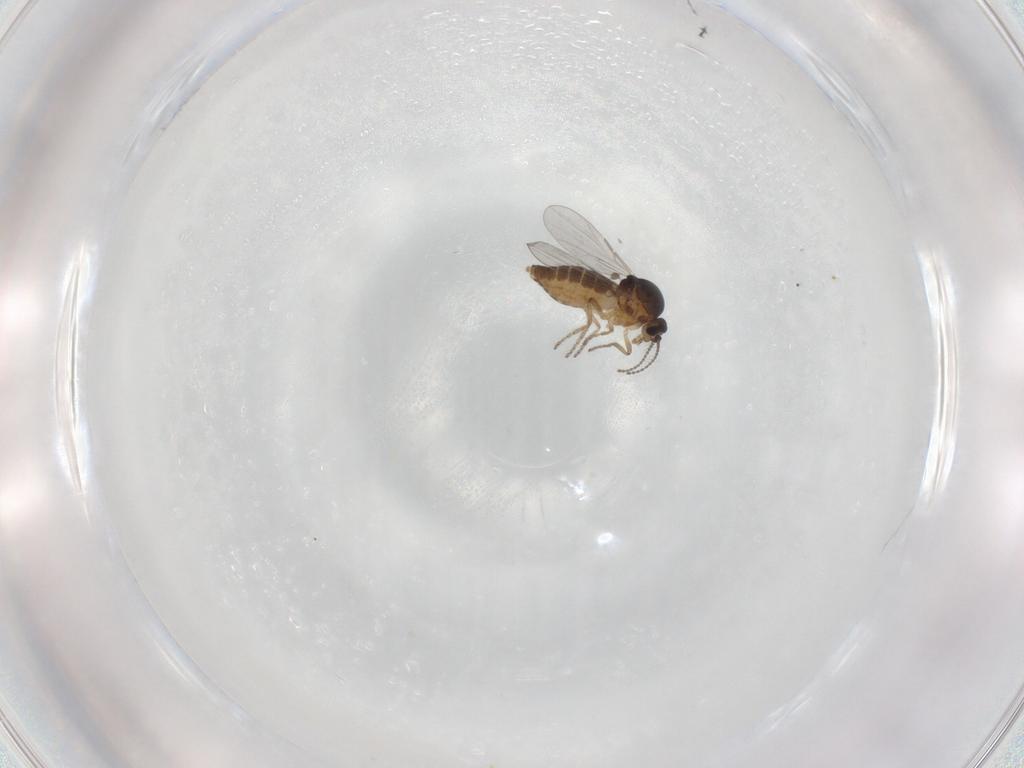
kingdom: Animalia
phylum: Arthropoda
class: Insecta
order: Diptera
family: Ceratopogonidae
